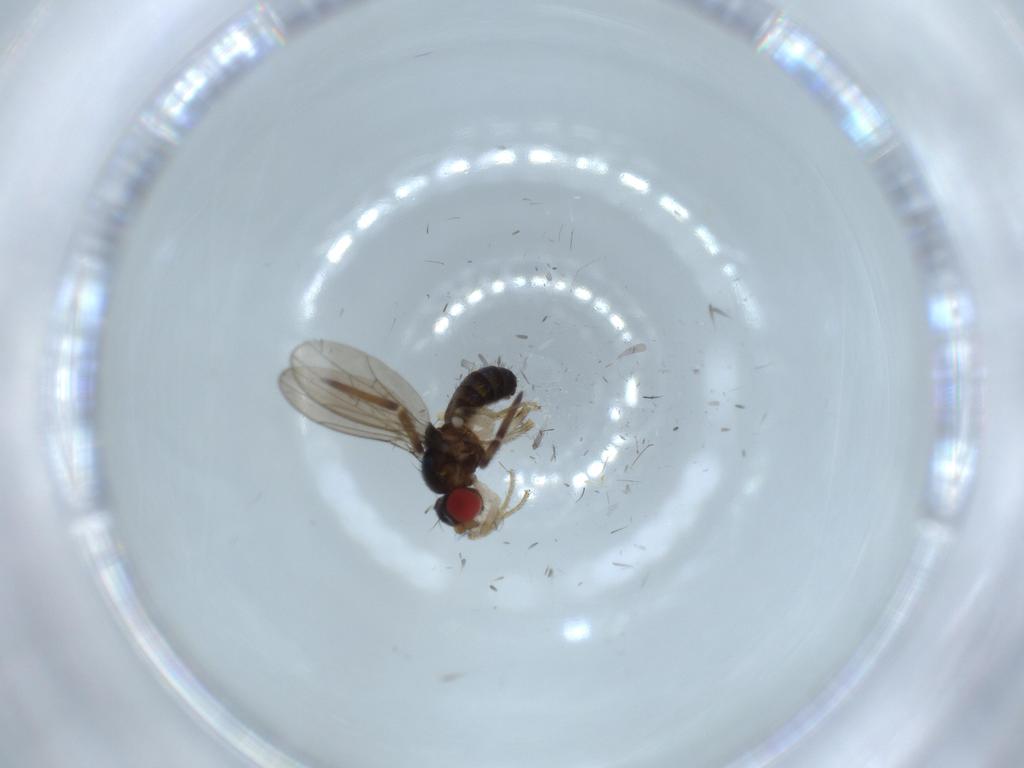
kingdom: Animalia
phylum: Arthropoda
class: Insecta
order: Diptera
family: Drosophilidae
